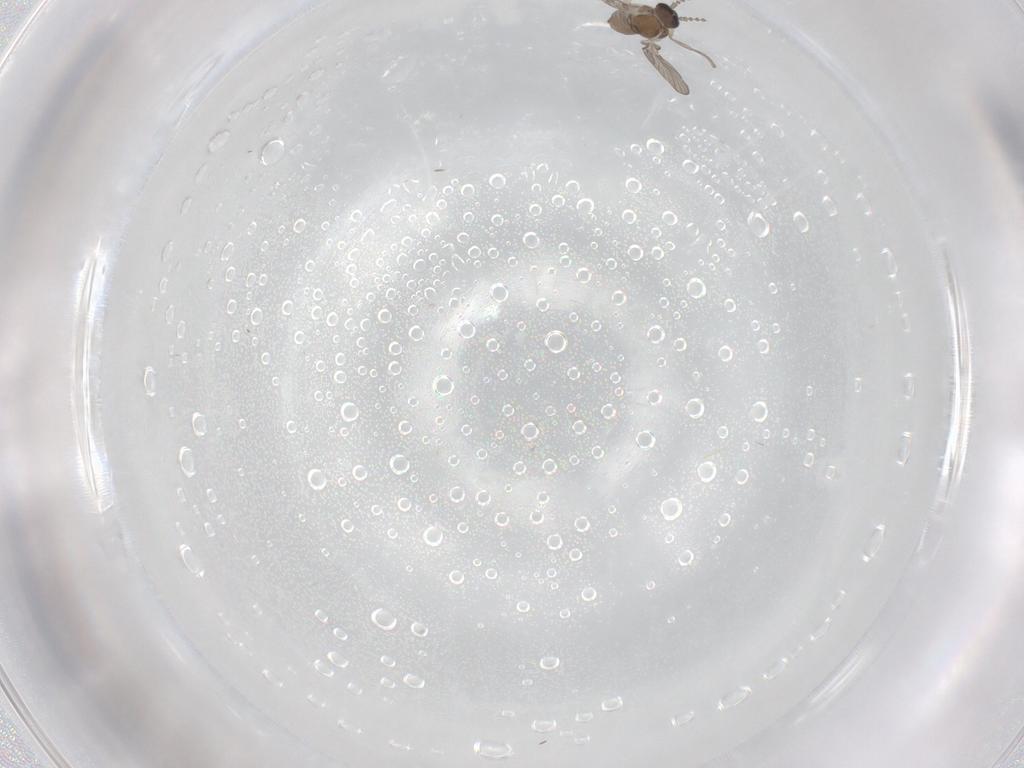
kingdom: Animalia
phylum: Arthropoda
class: Insecta
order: Diptera
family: Psychodidae
